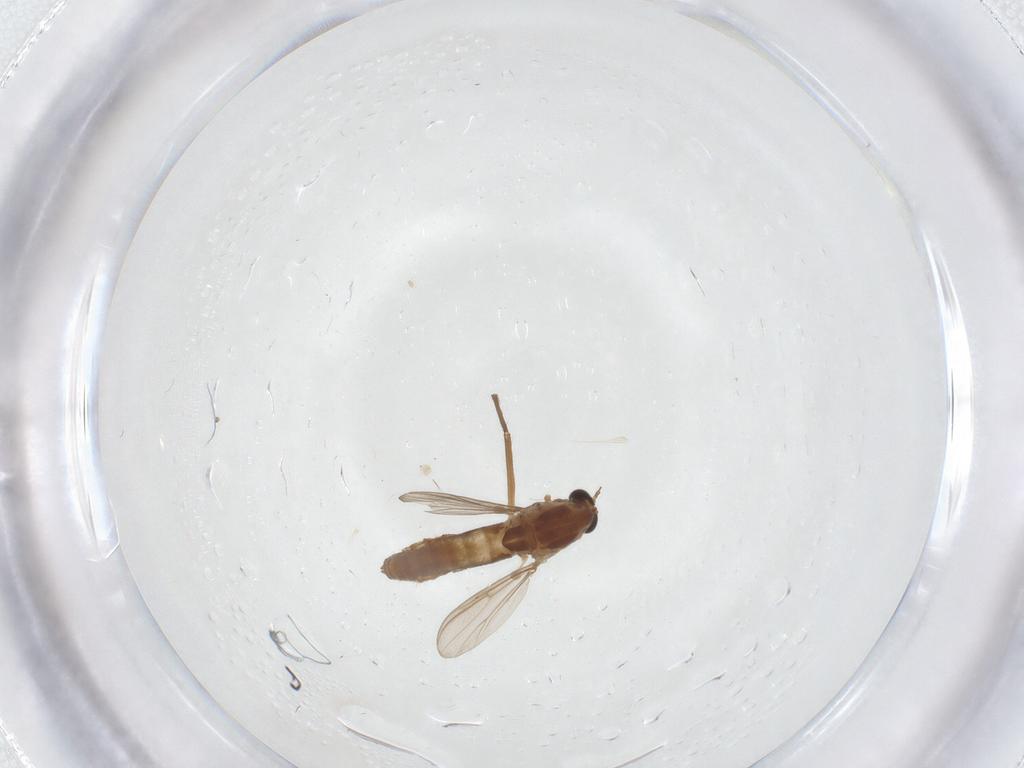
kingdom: Animalia
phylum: Arthropoda
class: Insecta
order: Diptera
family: Chironomidae
